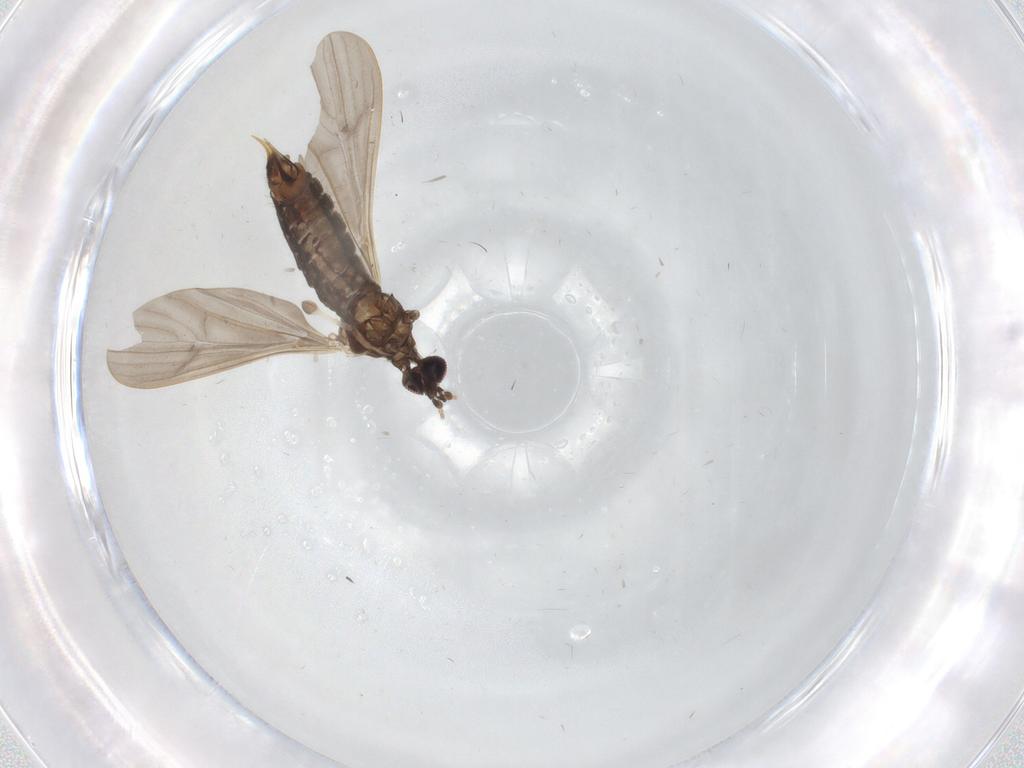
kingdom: Animalia
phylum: Arthropoda
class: Insecta
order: Diptera
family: Limoniidae
